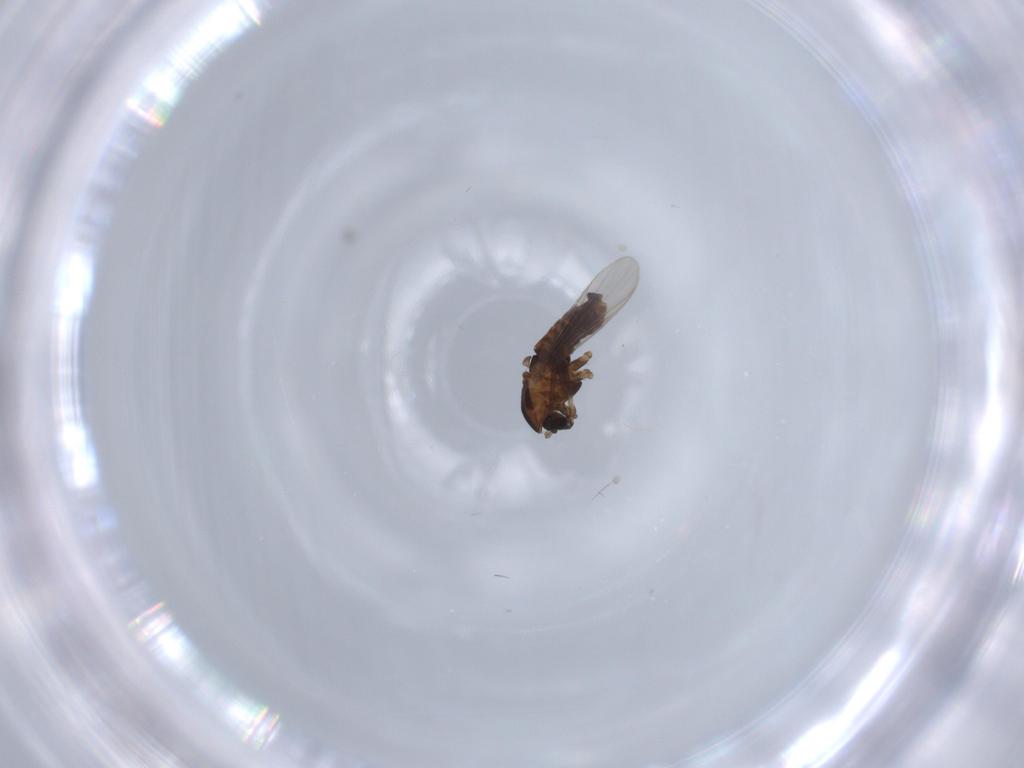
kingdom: Animalia
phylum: Arthropoda
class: Insecta
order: Diptera
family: Chironomidae
